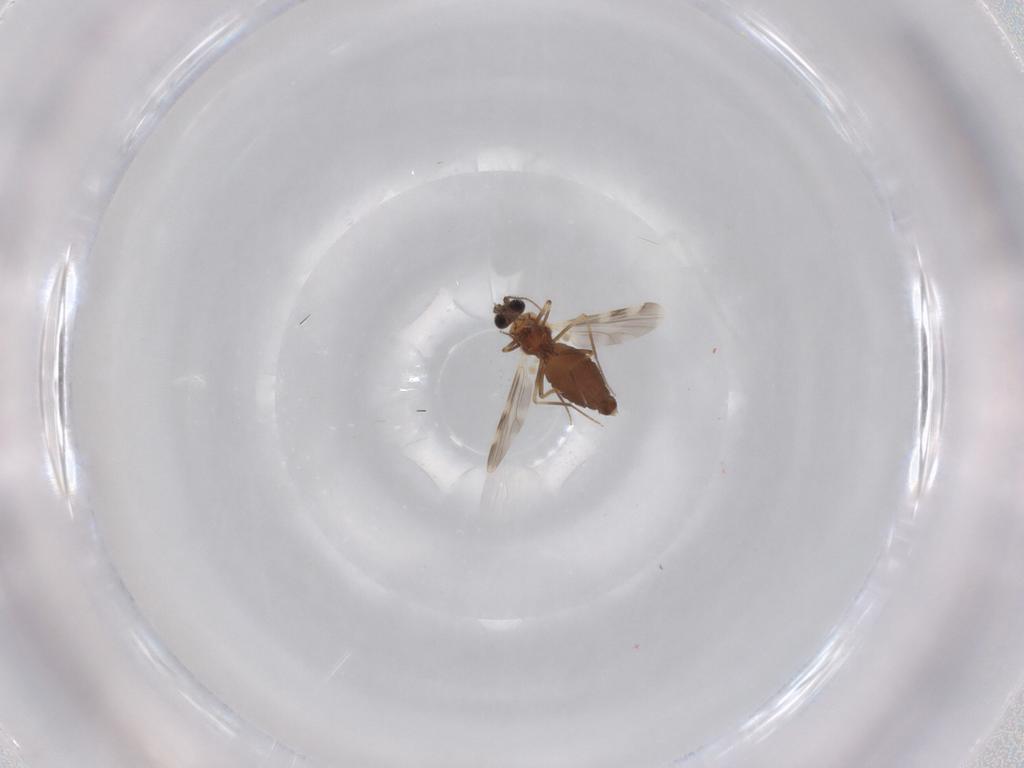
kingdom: Animalia
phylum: Arthropoda
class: Insecta
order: Diptera
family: Ceratopogonidae
